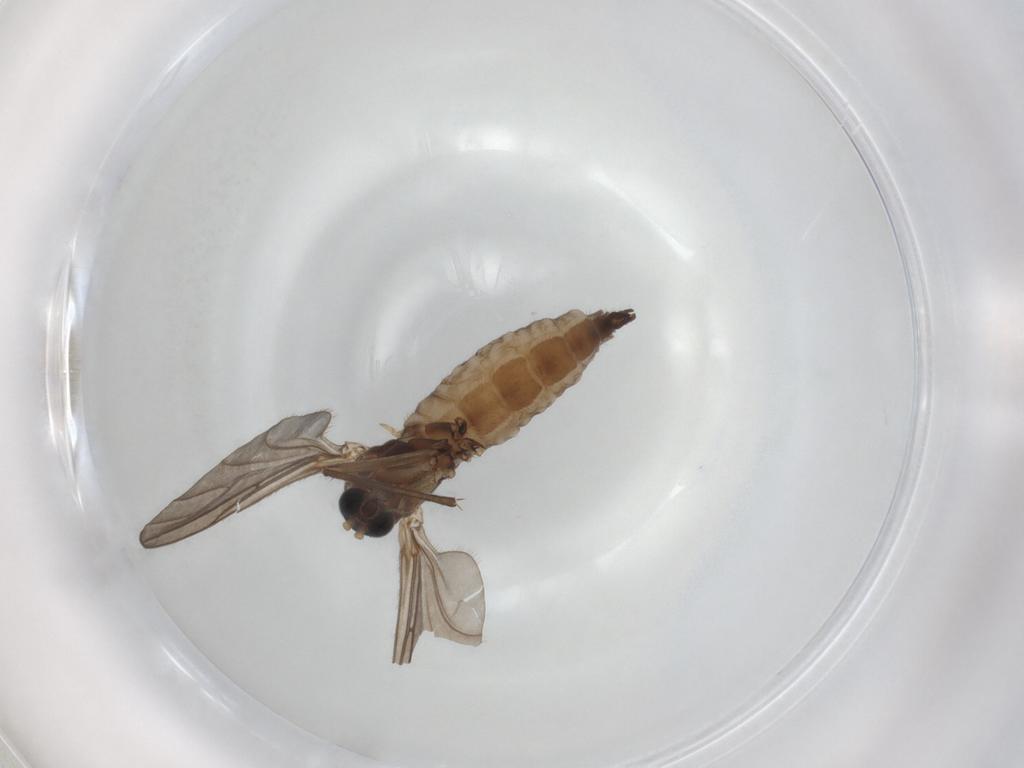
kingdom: Animalia
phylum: Arthropoda
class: Insecta
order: Diptera
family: Sciaridae
